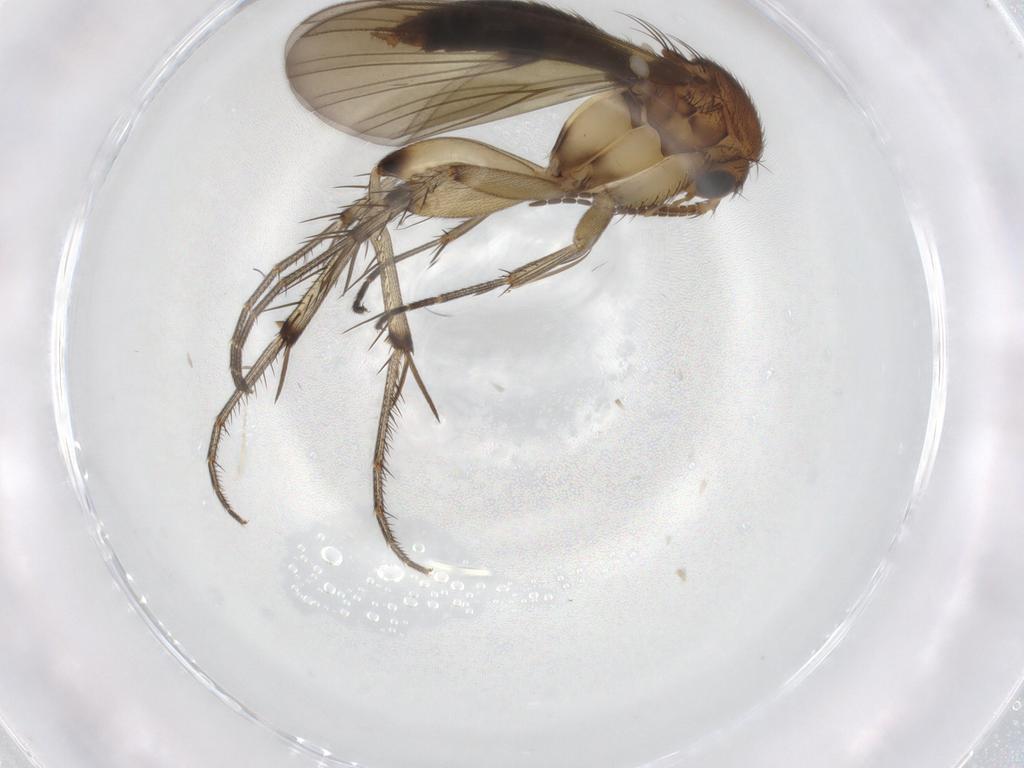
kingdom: Animalia
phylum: Arthropoda
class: Insecta
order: Diptera
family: Mycetophilidae
